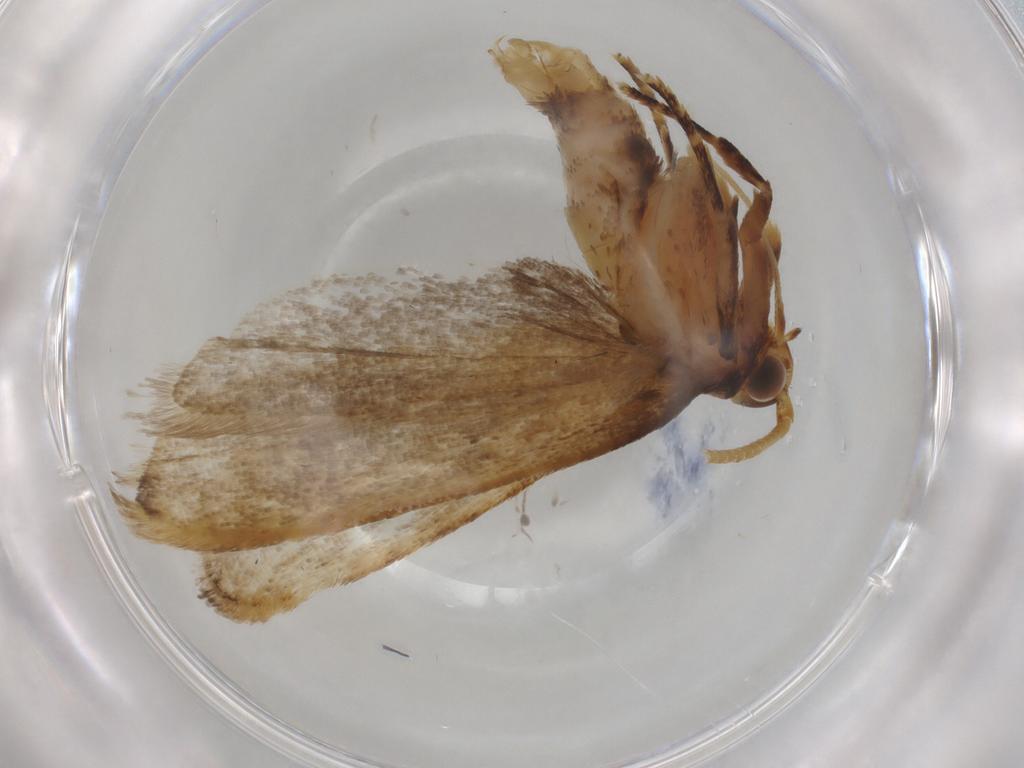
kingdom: Animalia
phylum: Arthropoda
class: Insecta
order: Lepidoptera
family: Lecithoceridae
